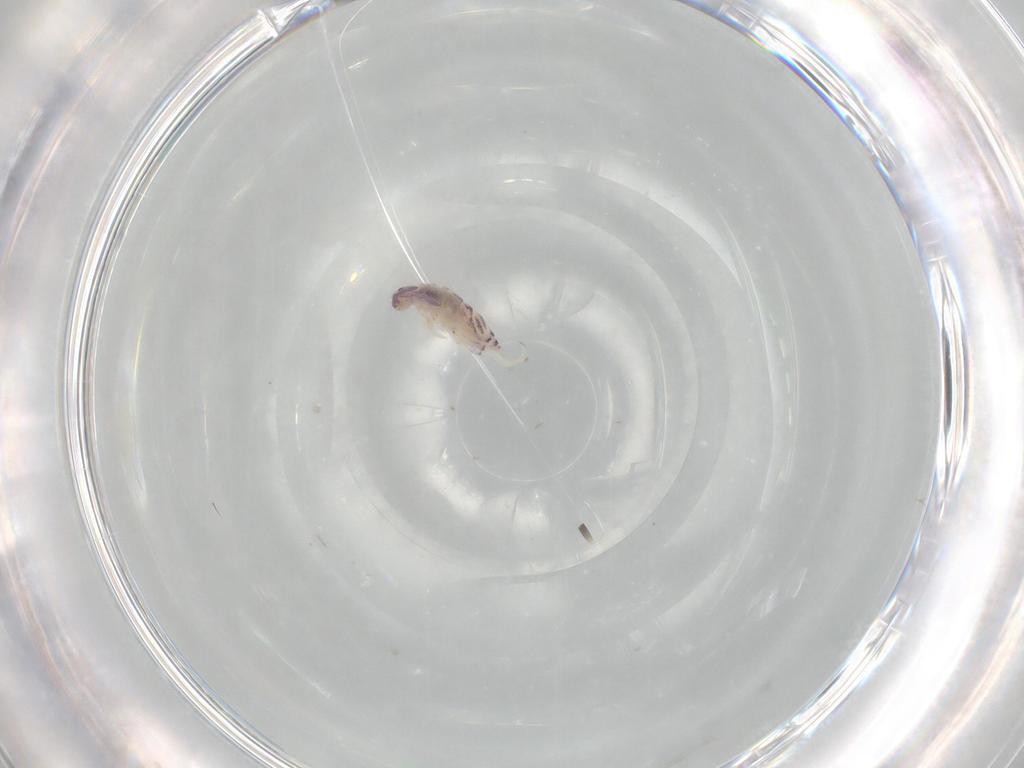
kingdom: Animalia
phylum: Arthropoda
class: Collembola
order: Entomobryomorpha
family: Entomobryidae
